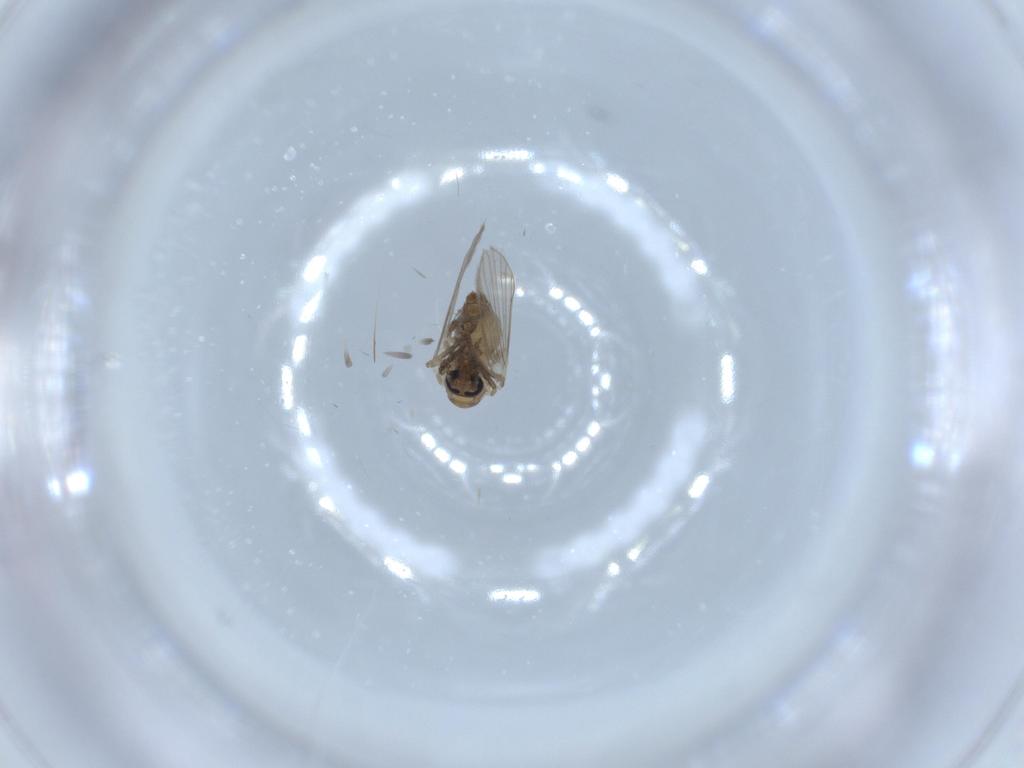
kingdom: Animalia
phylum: Arthropoda
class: Insecta
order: Diptera
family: Psychodidae
